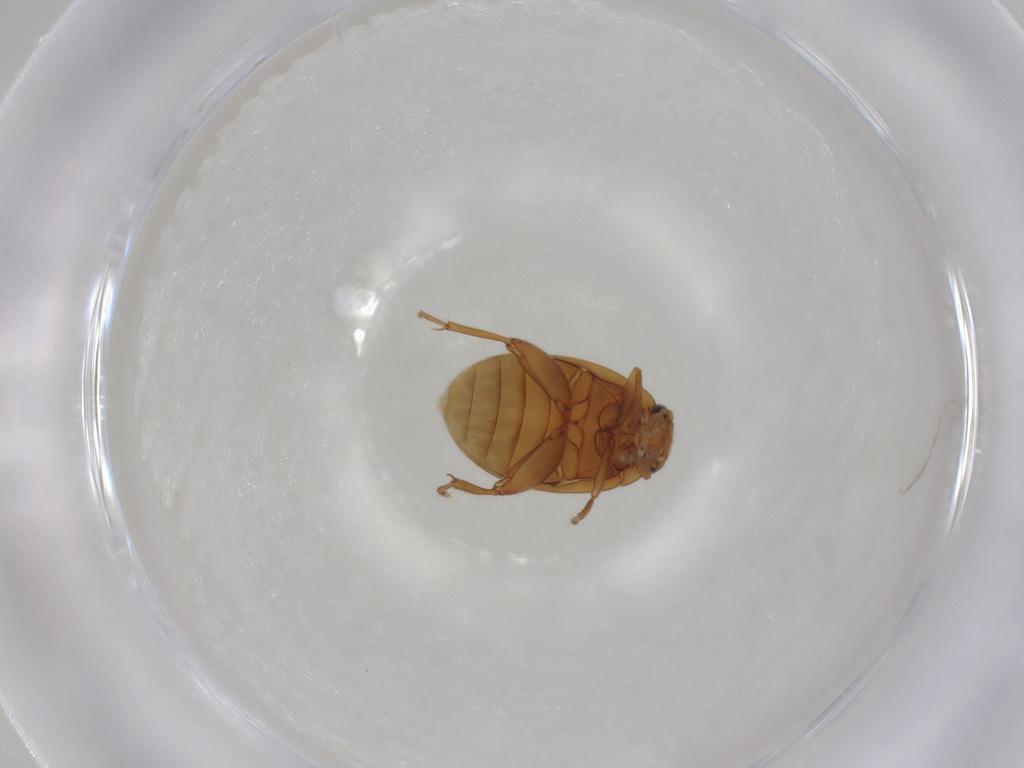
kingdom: Animalia
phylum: Arthropoda
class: Insecta
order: Coleoptera
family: Scirtidae
